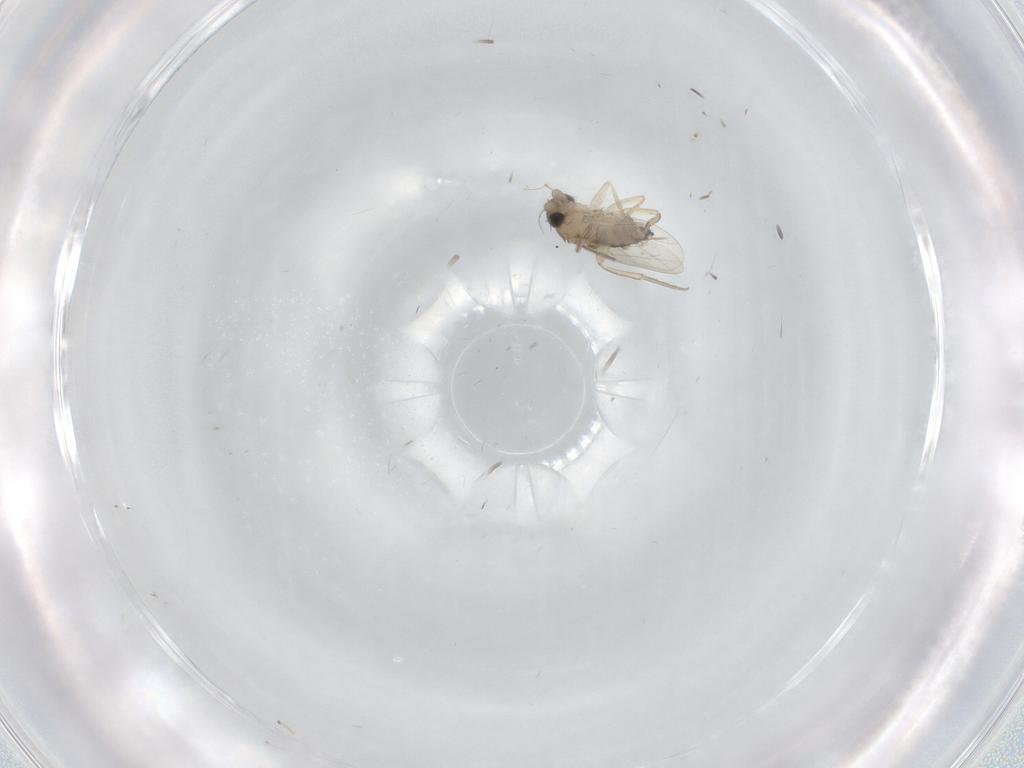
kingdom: Animalia
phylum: Arthropoda
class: Insecta
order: Diptera
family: Phoridae
